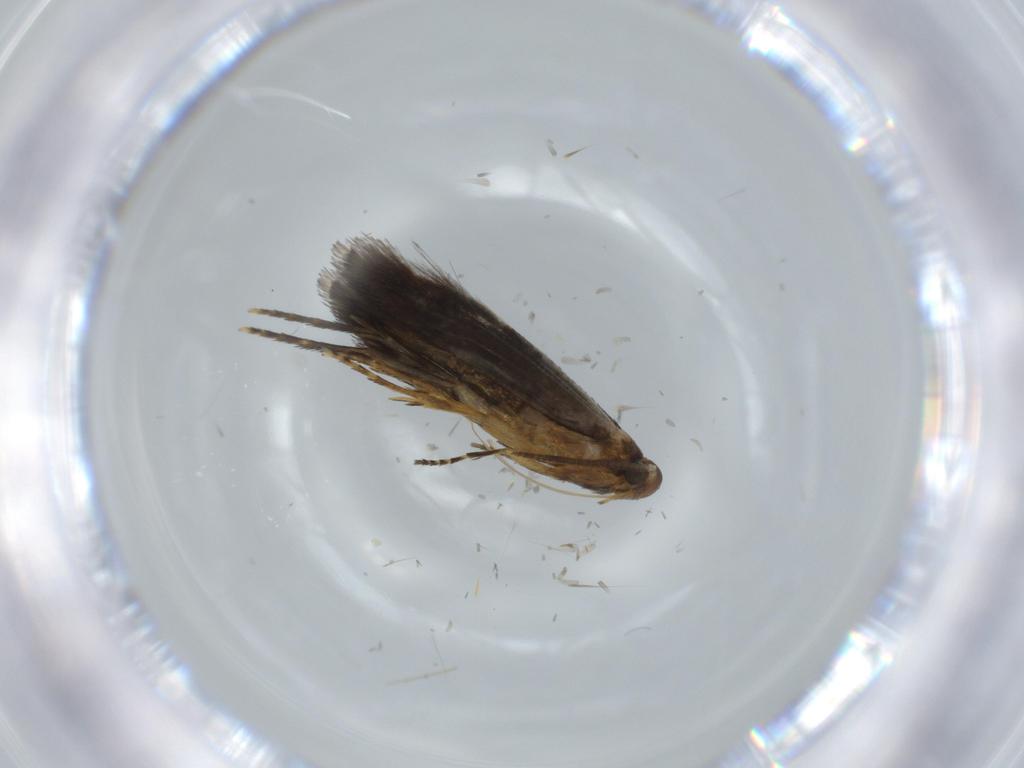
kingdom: Animalia
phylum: Arthropoda
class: Insecta
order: Lepidoptera
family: Heliozelidae
